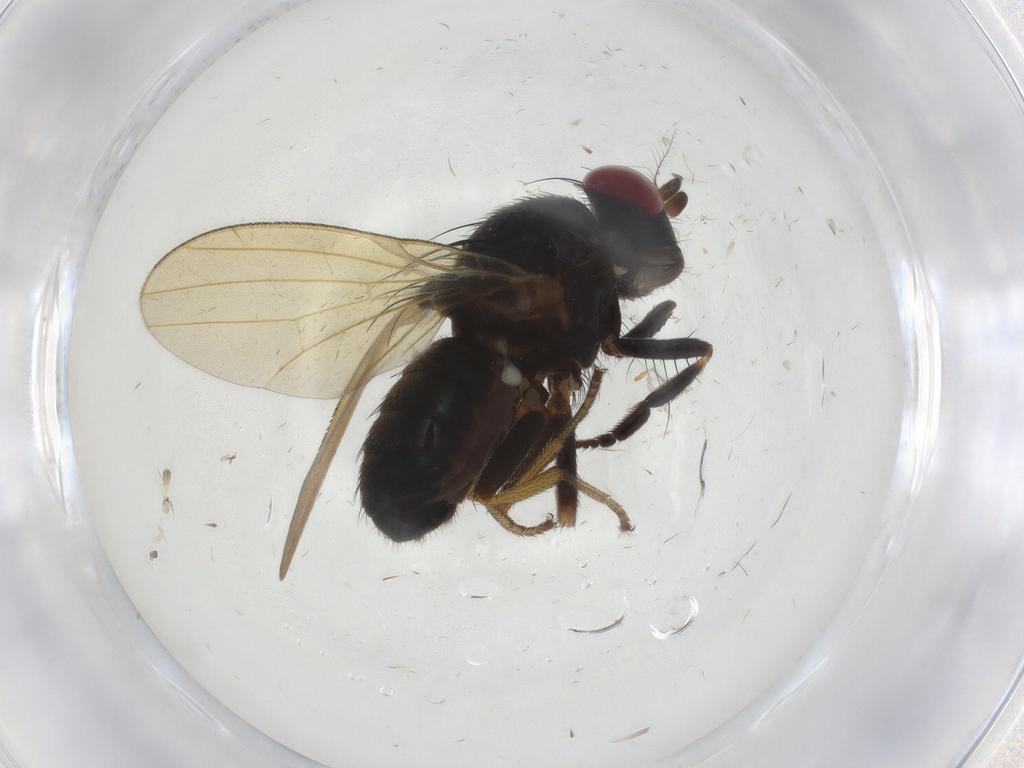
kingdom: Animalia
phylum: Arthropoda
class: Insecta
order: Diptera
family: Sciaridae
